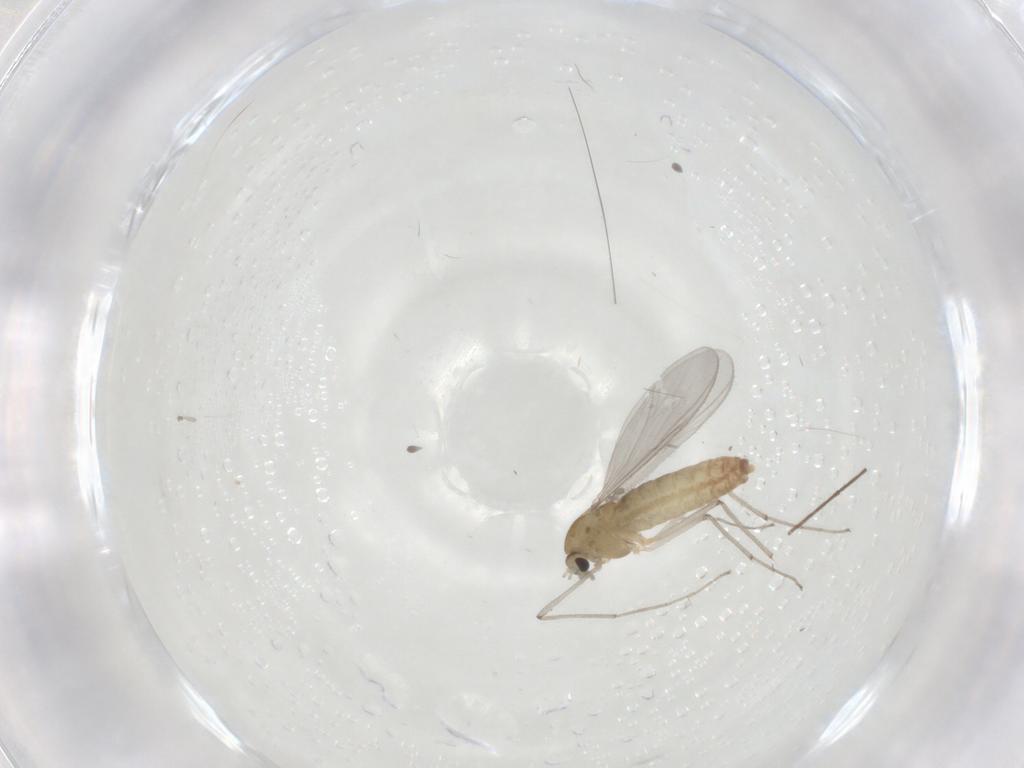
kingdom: Animalia
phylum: Arthropoda
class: Insecta
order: Diptera
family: Chironomidae
